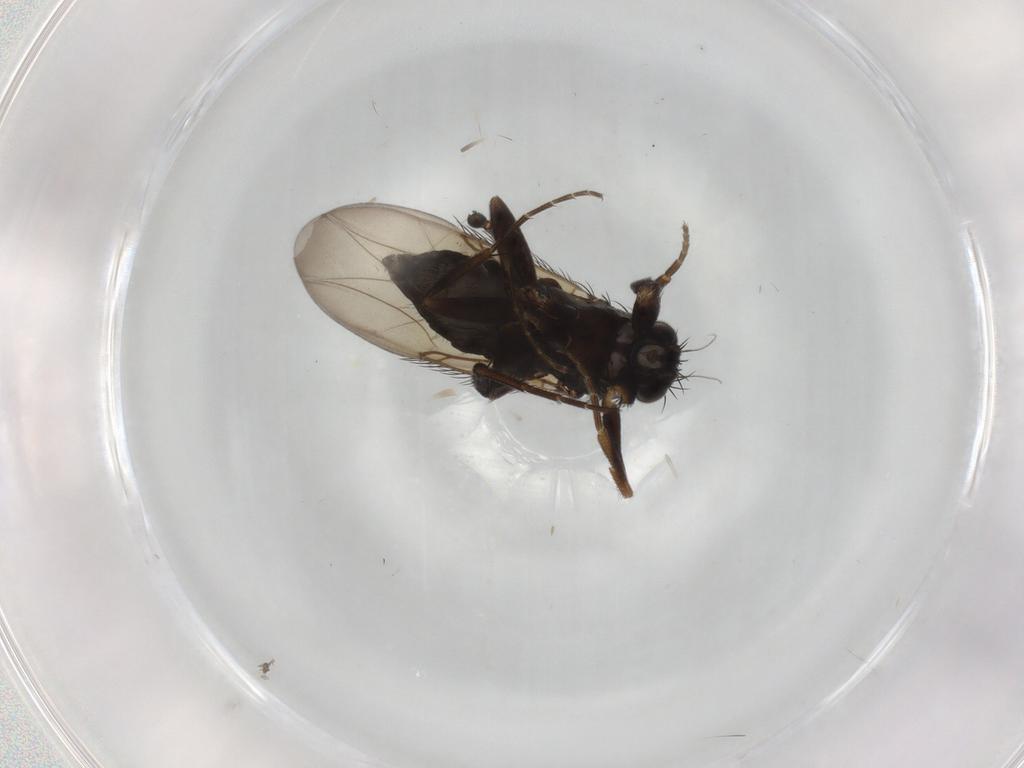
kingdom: Animalia
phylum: Arthropoda
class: Insecta
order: Diptera
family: Phoridae
